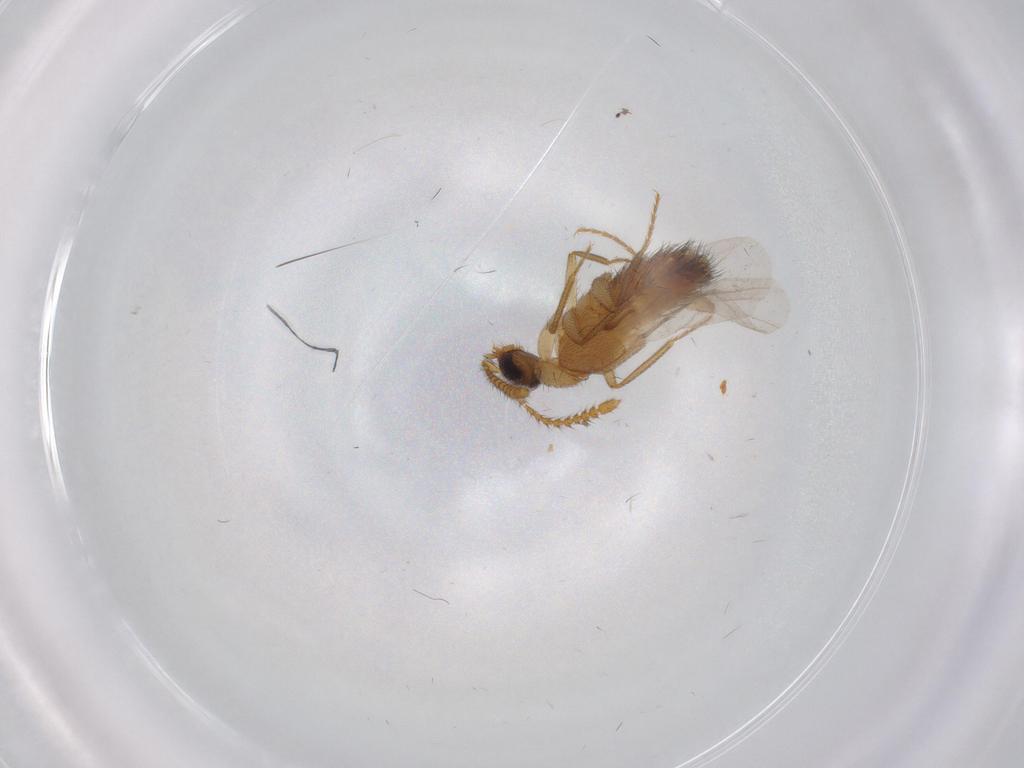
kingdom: Animalia
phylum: Arthropoda
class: Insecta
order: Coleoptera
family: Staphylinidae
